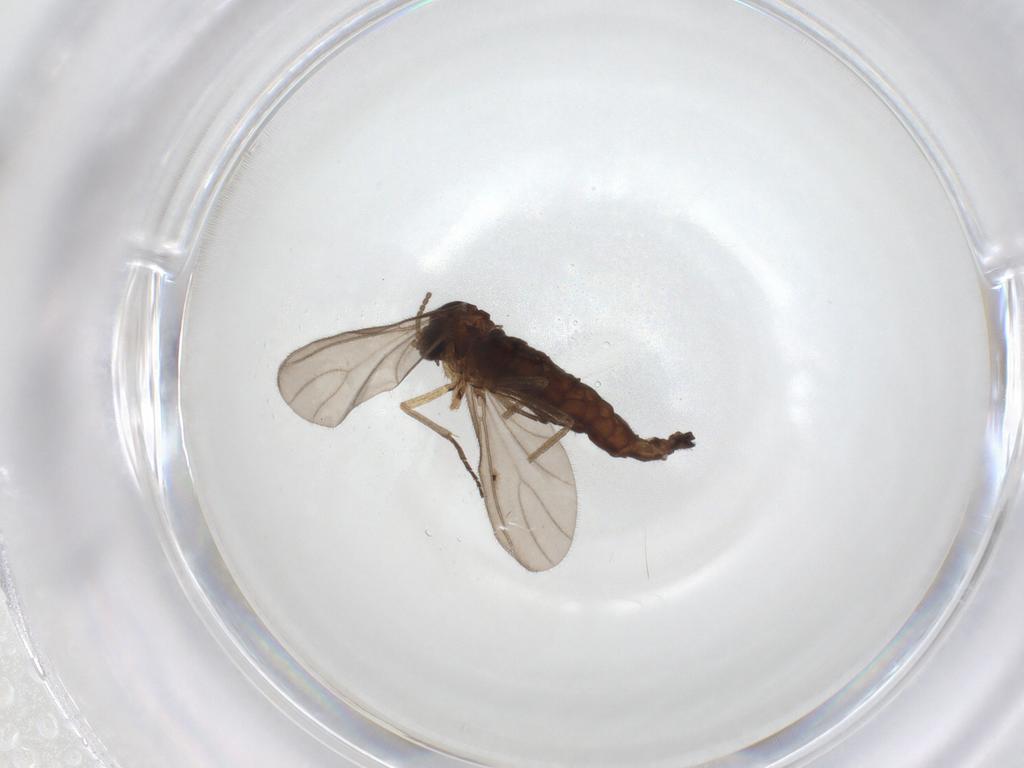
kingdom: Animalia
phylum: Arthropoda
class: Insecta
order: Diptera
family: Sciaridae
